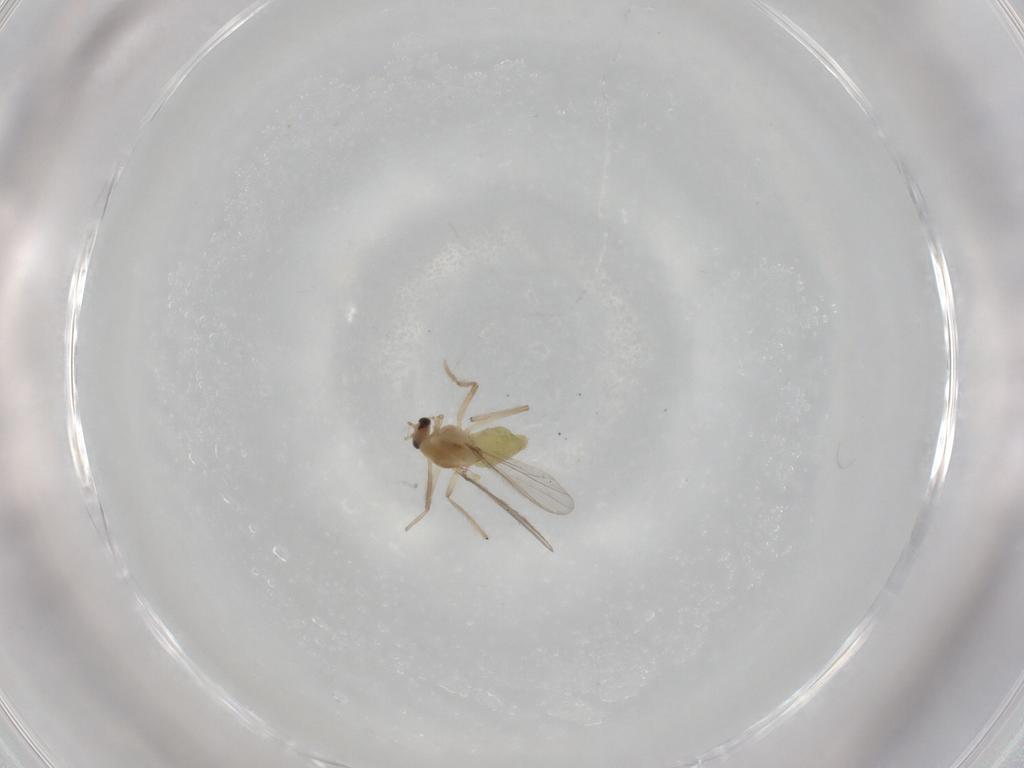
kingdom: Animalia
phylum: Arthropoda
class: Insecta
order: Diptera
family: Chironomidae
